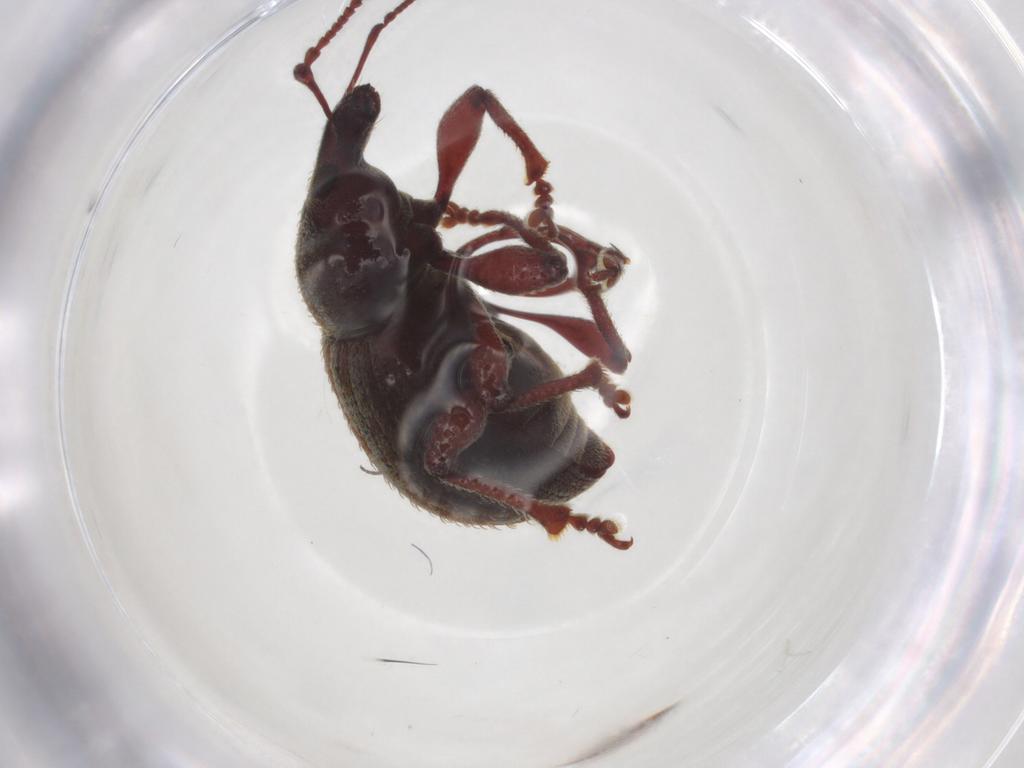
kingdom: Animalia
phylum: Arthropoda
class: Insecta
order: Coleoptera
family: Curculionidae
